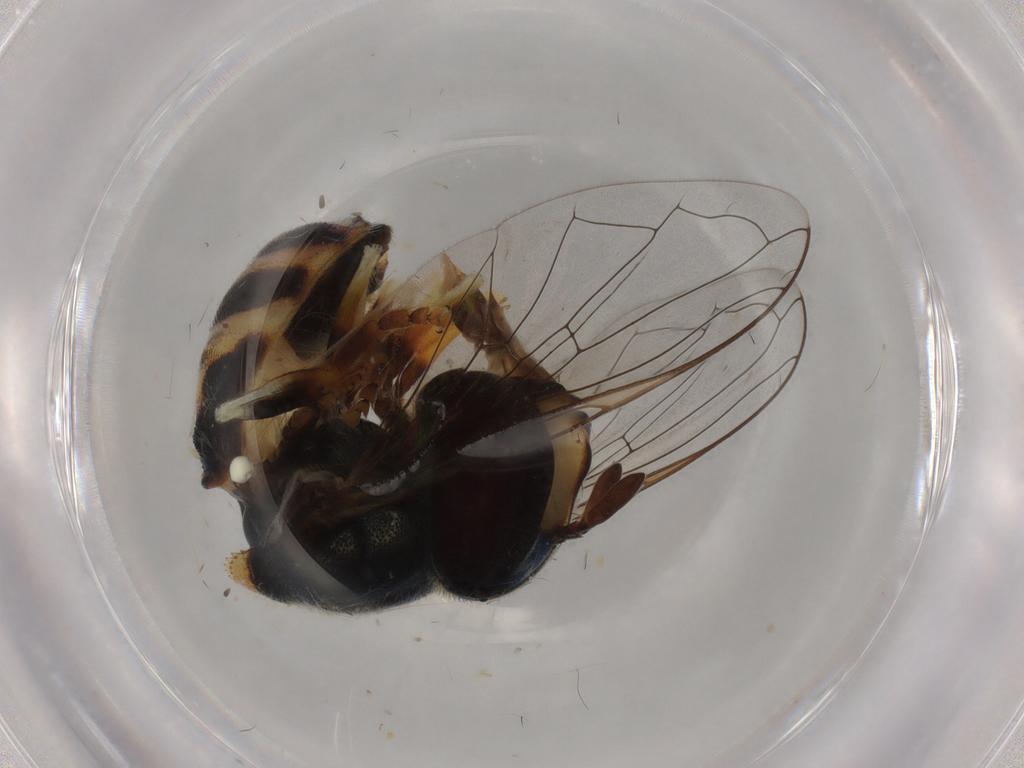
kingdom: Animalia
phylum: Arthropoda
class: Insecta
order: Diptera
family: Syrphidae
